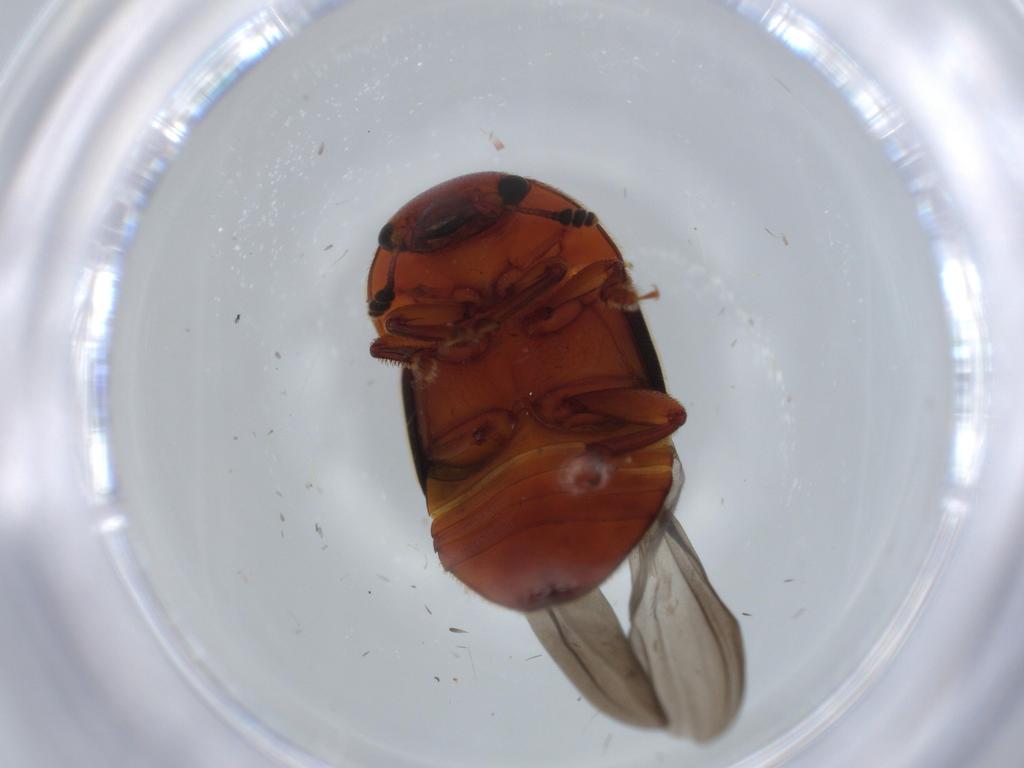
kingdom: Animalia
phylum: Arthropoda
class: Insecta
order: Coleoptera
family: Nitidulidae
